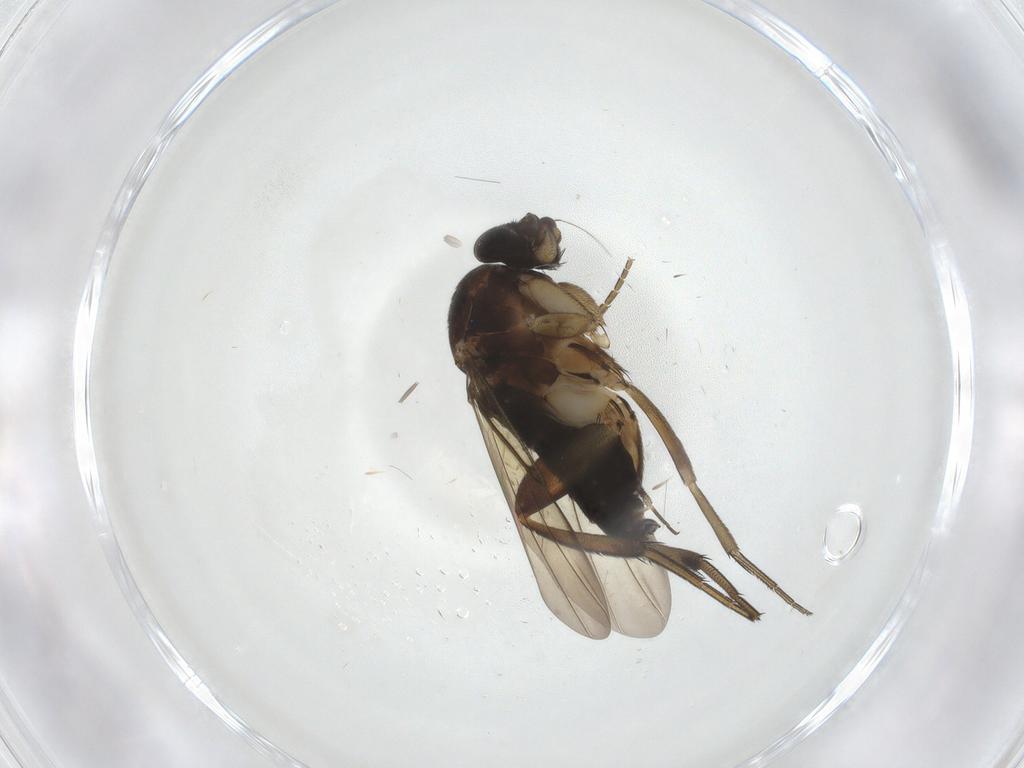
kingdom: Animalia
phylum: Arthropoda
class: Insecta
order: Diptera
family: Phoridae
